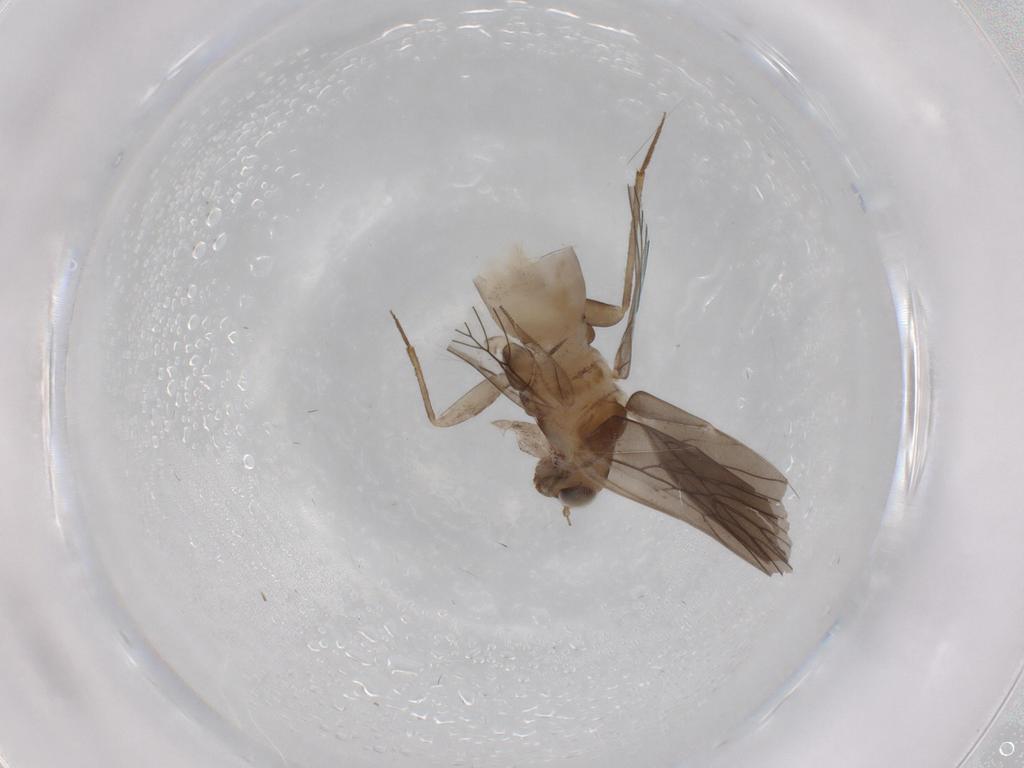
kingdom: Animalia
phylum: Arthropoda
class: Insecta
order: Psocodea
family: Lepidopsocidae
